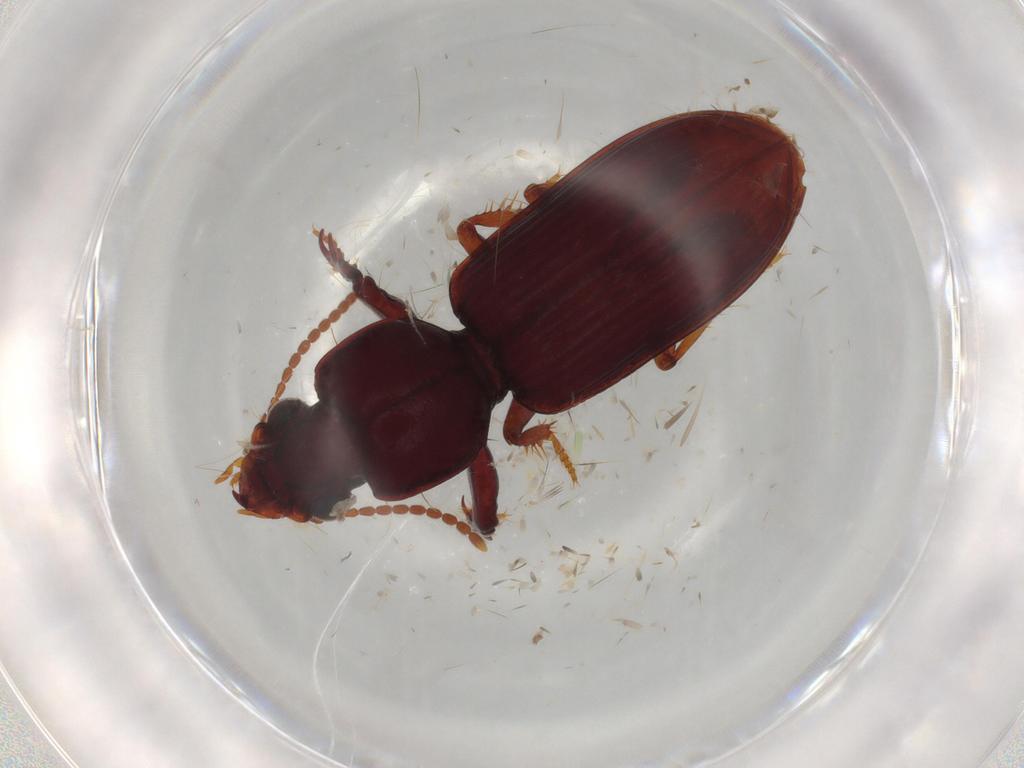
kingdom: Animalia
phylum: Arthropoda
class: Insecta
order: Coleoptera
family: Carabidae
